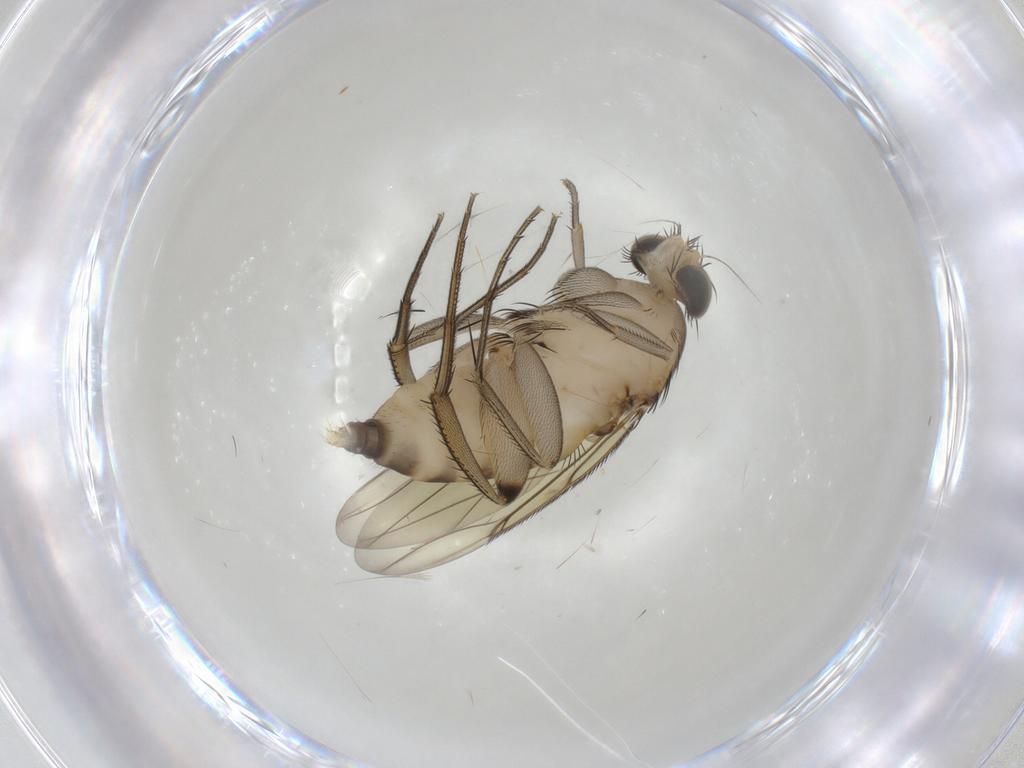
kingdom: Animalia
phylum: Arthropoda
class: Insecta
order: Diptera
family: Phoridae
